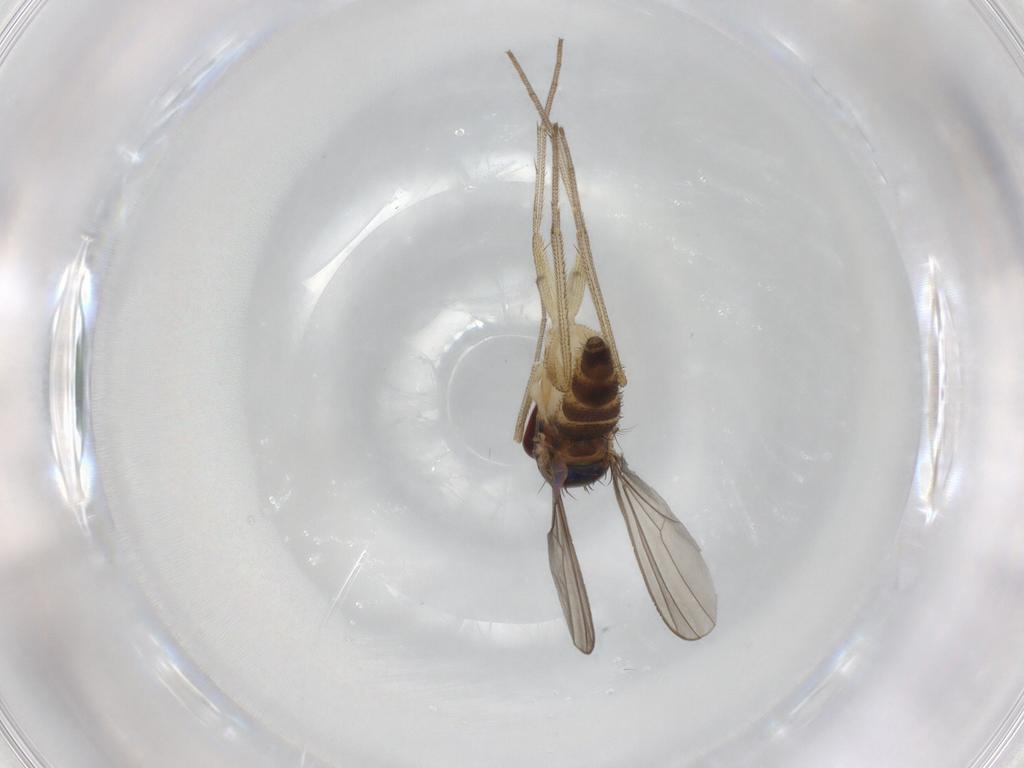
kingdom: Animalia
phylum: Arthropoda
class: Insecta
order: Diptera
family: Dolichopodidae
